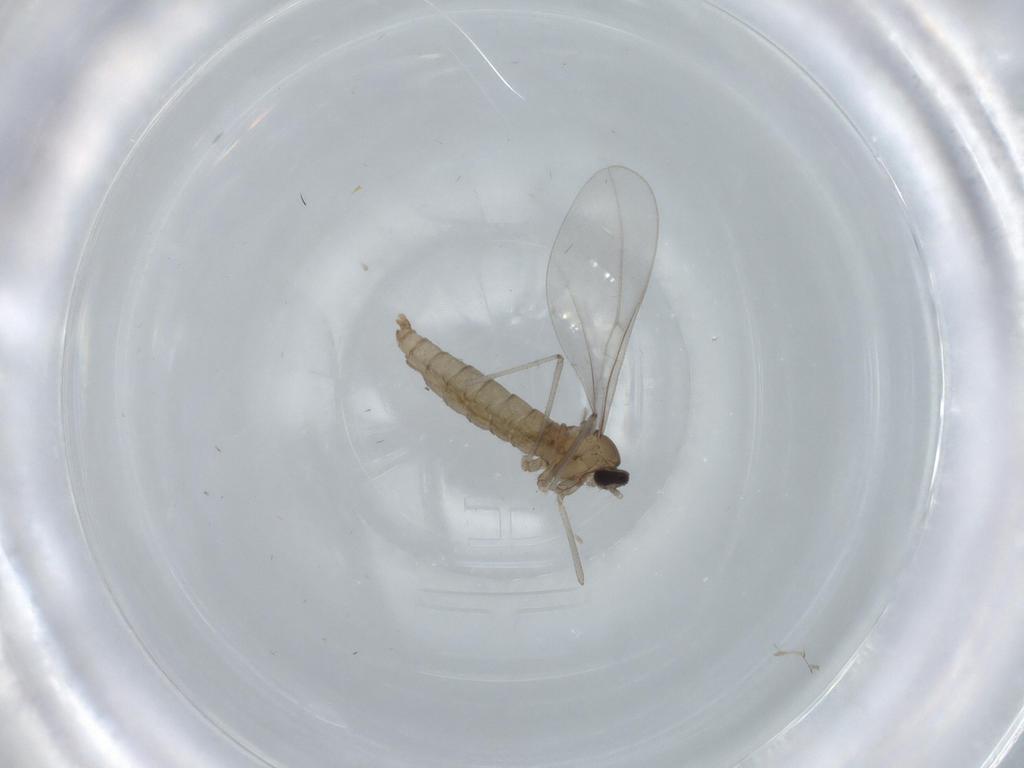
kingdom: Animalia
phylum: Arthropoda
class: Insecta
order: Diptera
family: Cecidomyiidae
